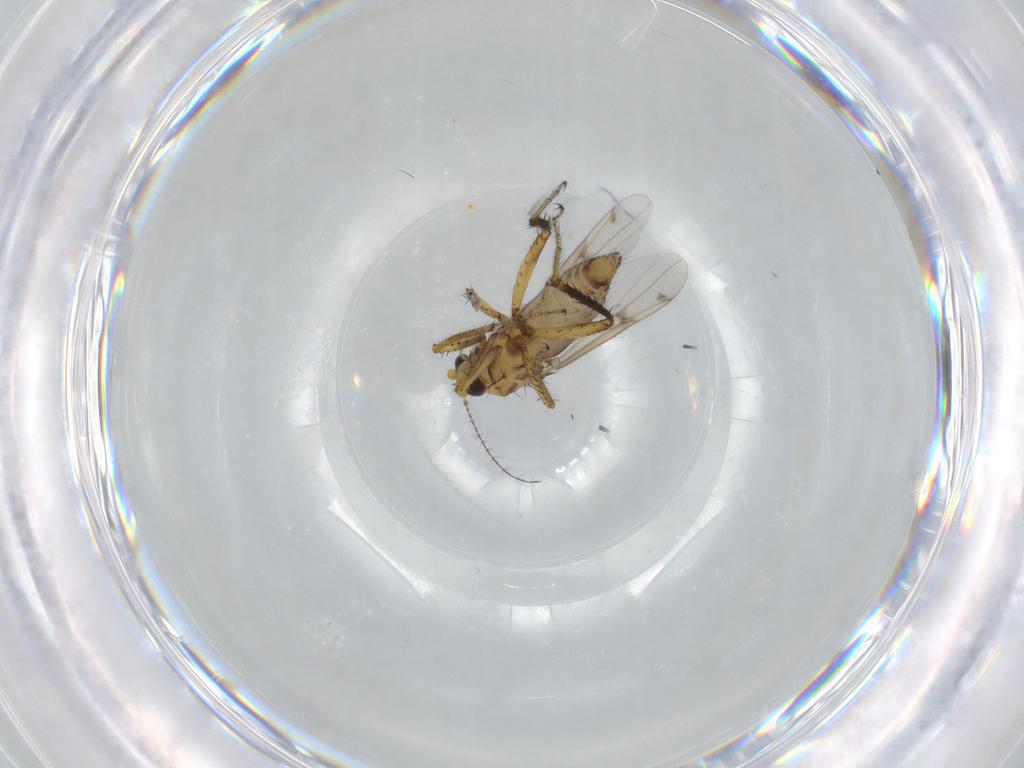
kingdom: Animalia
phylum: Arthropoda
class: Insecta
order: Diptera
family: Ceratopogonidae
